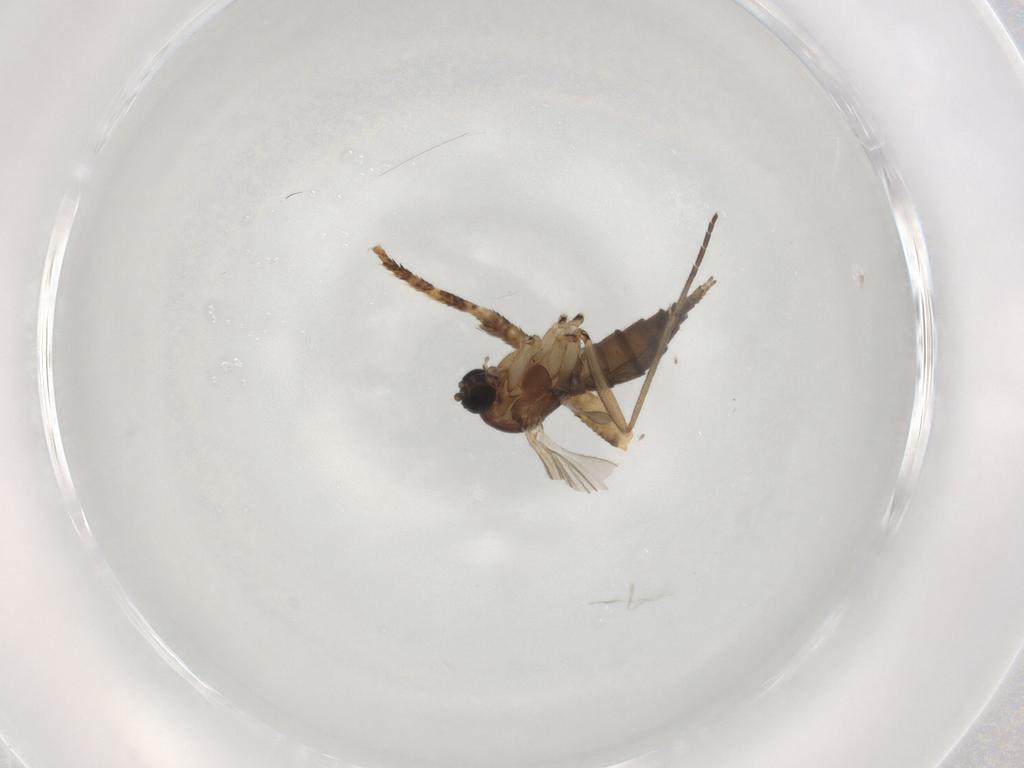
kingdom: Animalia
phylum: Arthropoda
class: Insecta
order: Diptera
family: Sciaridae
